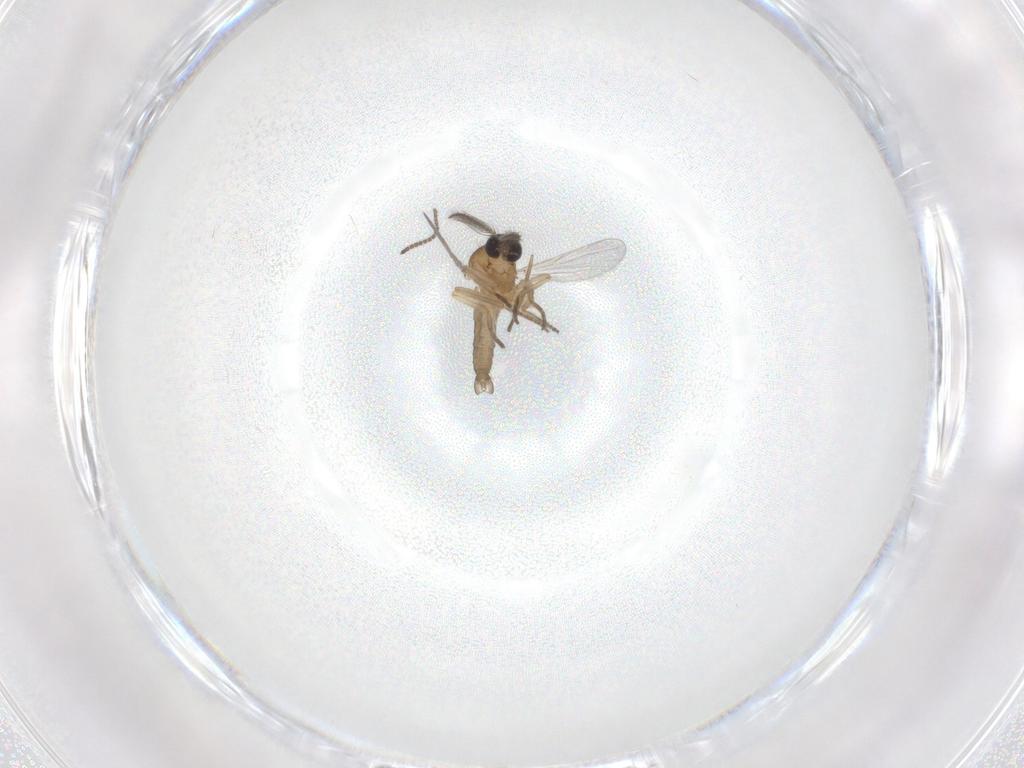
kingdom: Animalia
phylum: Arthropoda
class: Insecta
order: Diptera
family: Ceratopogonidae
